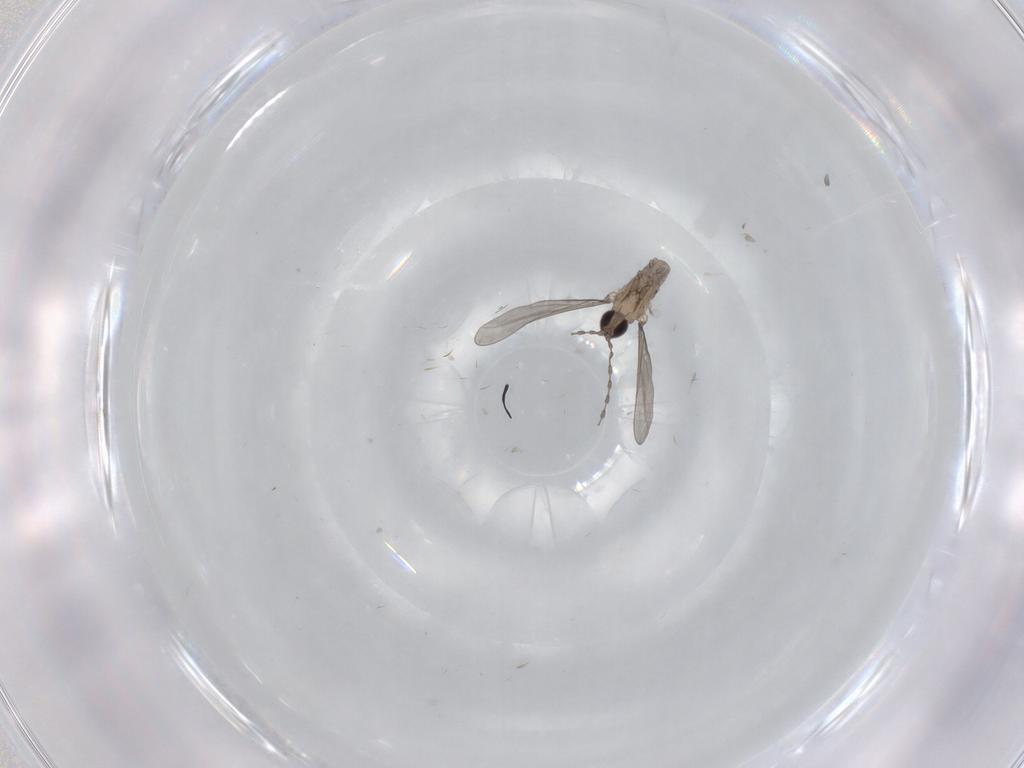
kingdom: Animalia
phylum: Arthropoda
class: Insecta
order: Diptera
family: Cecidomyiidae
